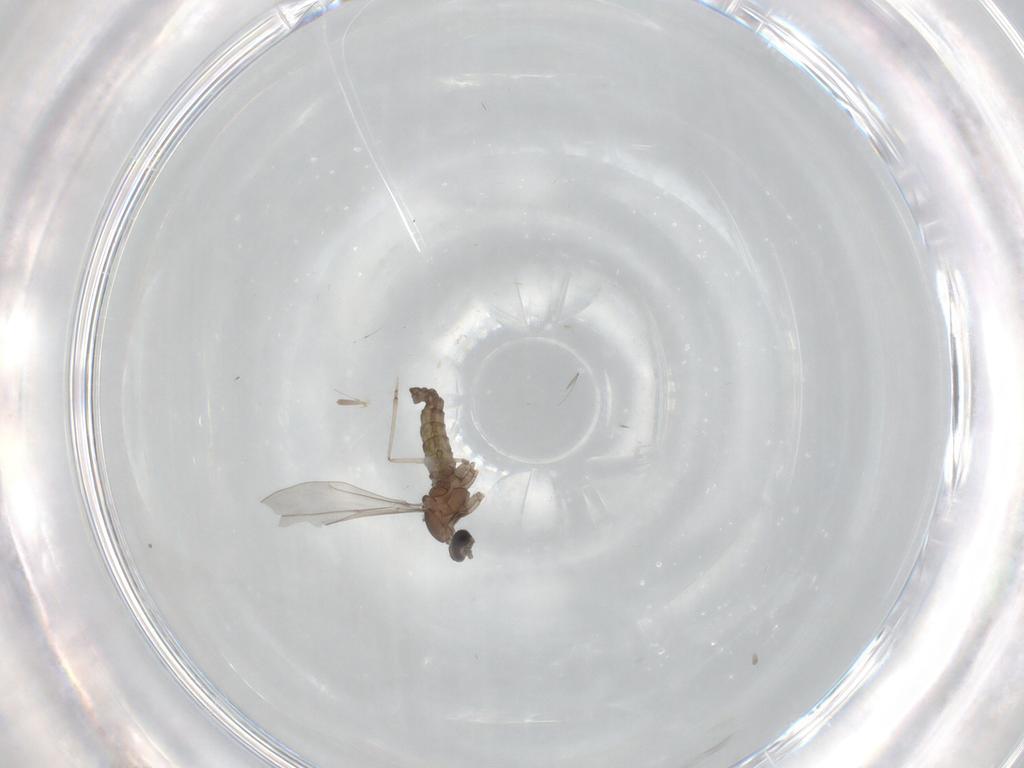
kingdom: Animalia
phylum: Arthropoda
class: Insecta
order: Diptera
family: Cecidomyiidae
